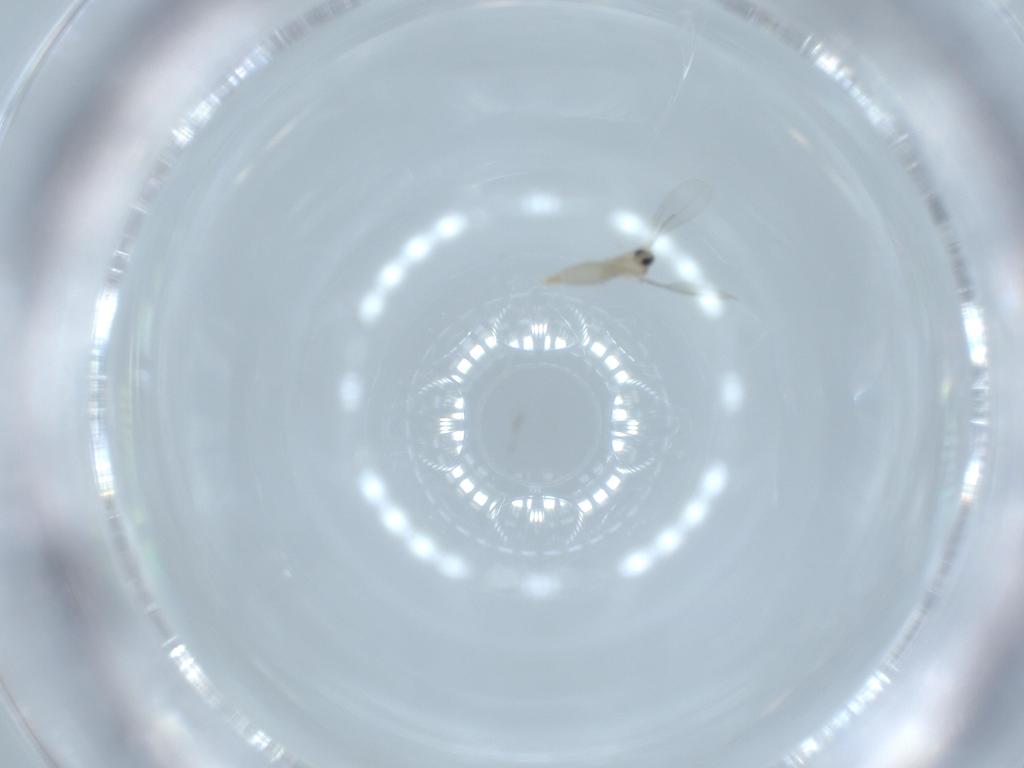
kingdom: Animalia
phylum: Arthropoda
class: Insecta
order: Diptera
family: Cecidomyiidae
